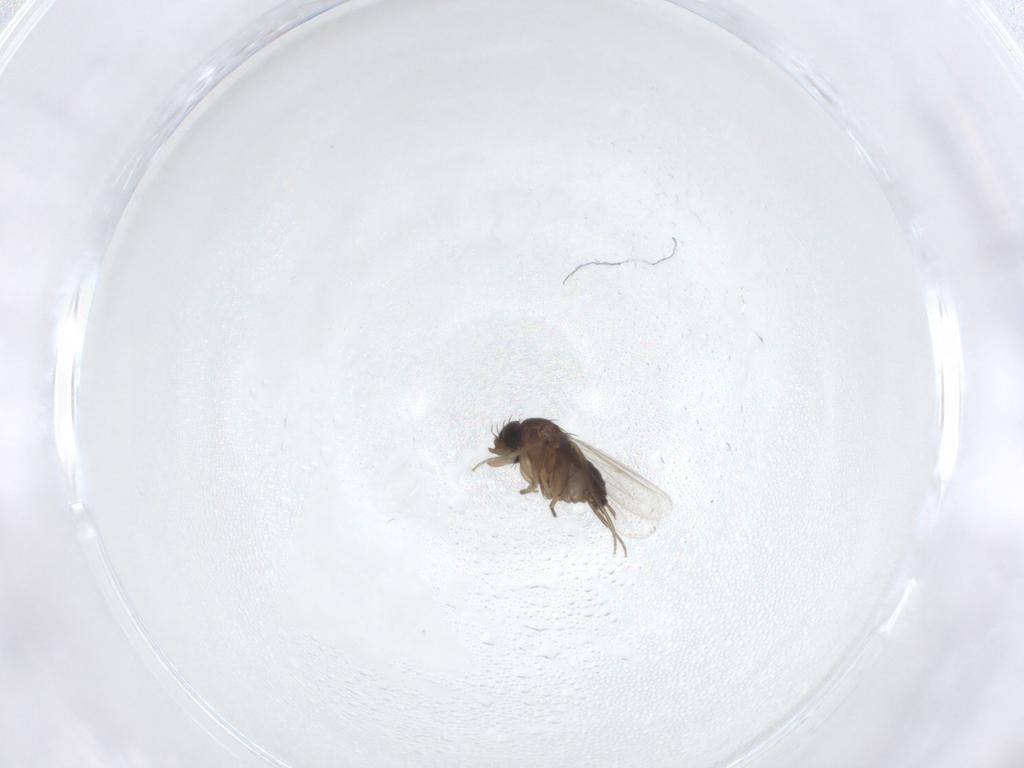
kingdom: Animalia
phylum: Arthropoda
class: Insecta
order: Diptera
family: Phoridae
